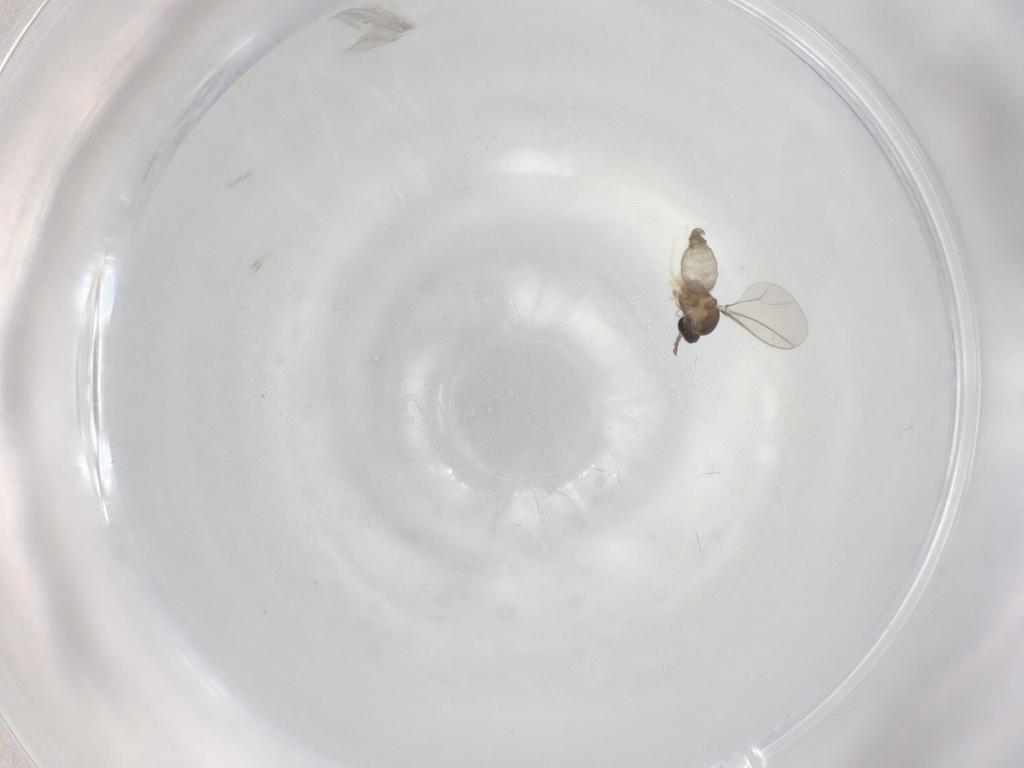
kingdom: Animalia
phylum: Arthropoda
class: Insecta
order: Diptera
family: Cecidomyiidae
